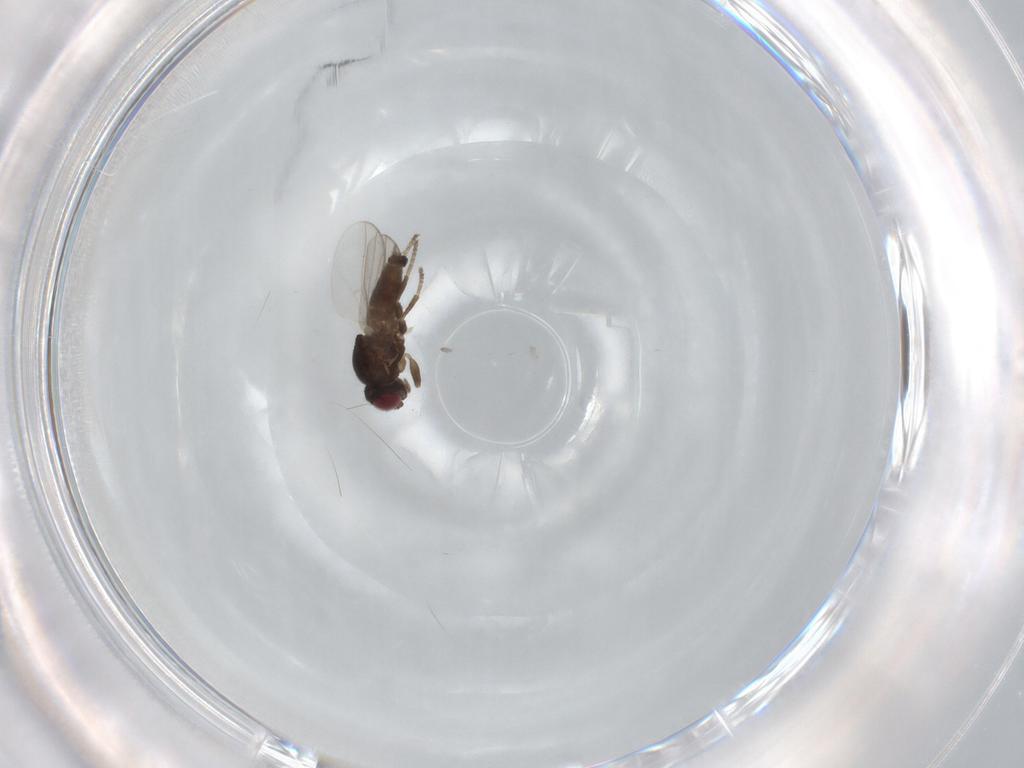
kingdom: Animalia
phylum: Arthropoda
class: Insecta
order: Diptera
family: Chloropidae
